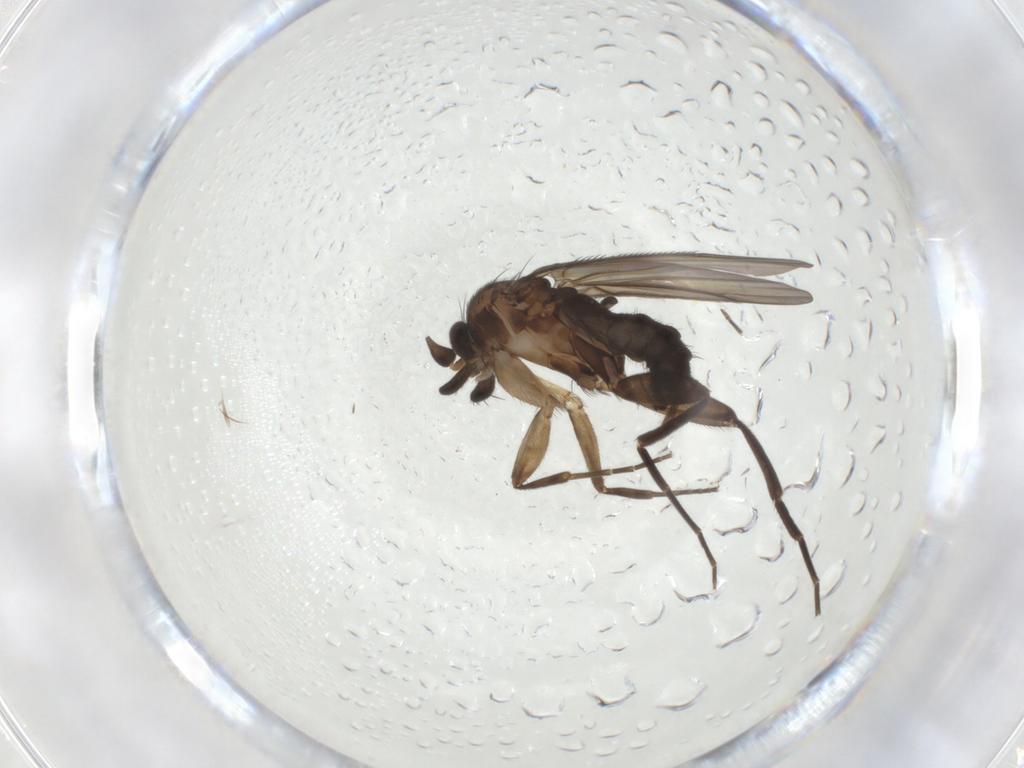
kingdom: Animalia
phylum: Arthropoda
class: Insecta
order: Diptera
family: Phoridae
